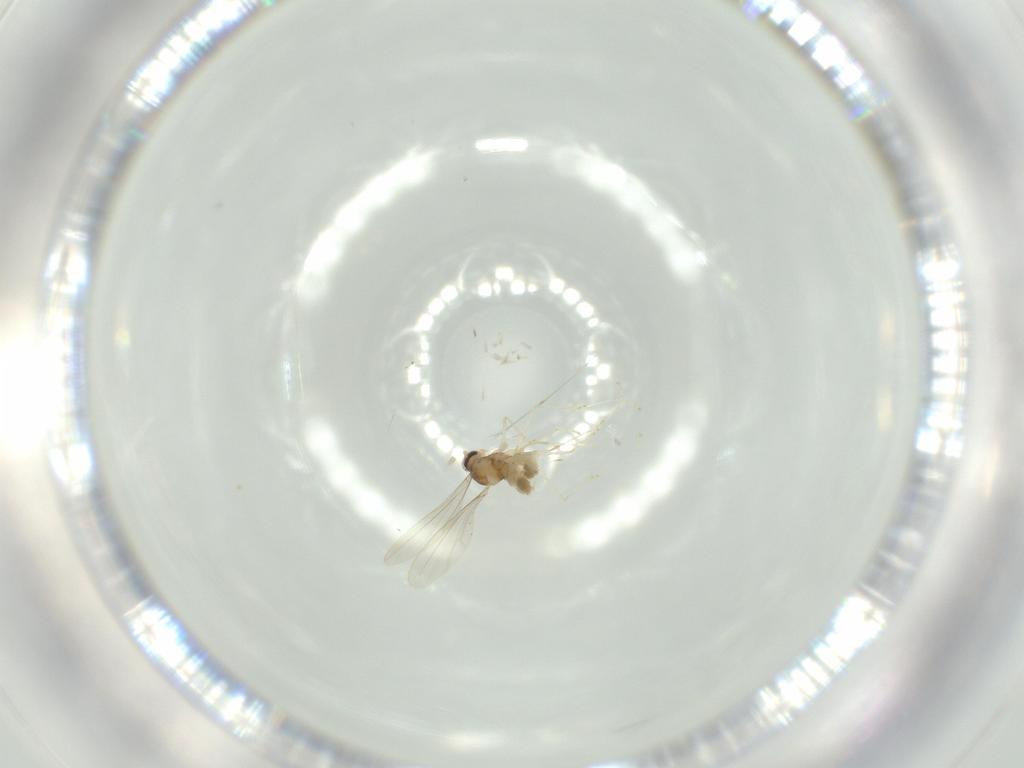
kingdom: Animalia
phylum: Arthropoda
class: Insecta
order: Diptera
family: Cecidomyiidae
